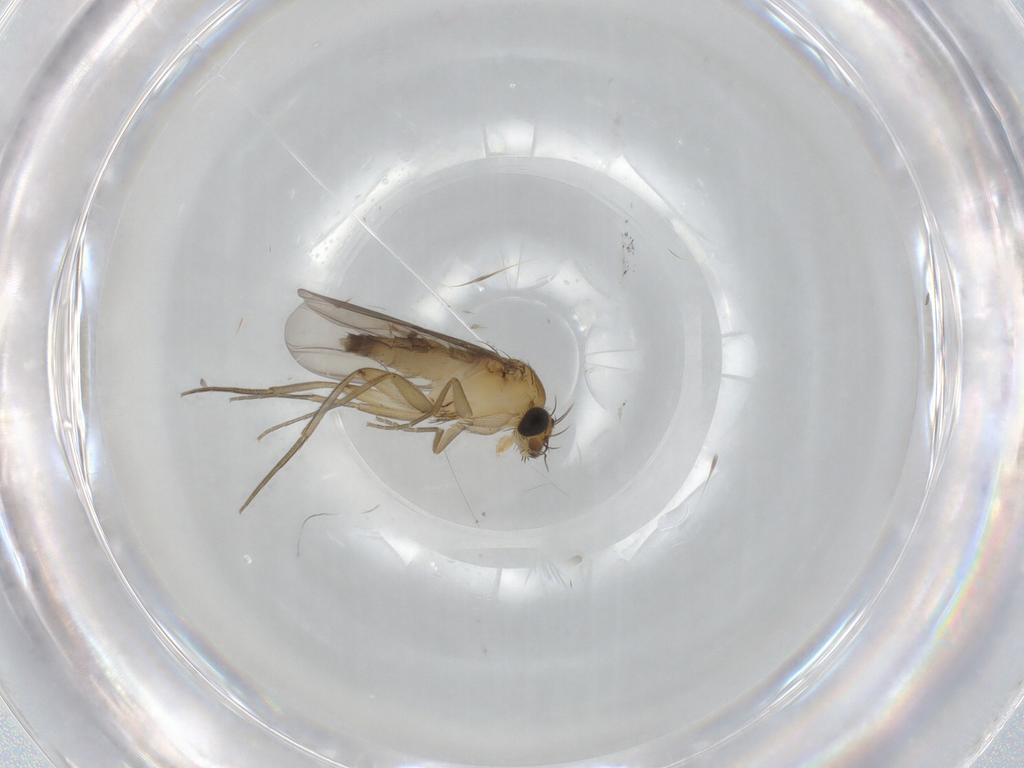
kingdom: Animalia
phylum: Arthropoda
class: Insecta
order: Diptera
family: Phoridae
